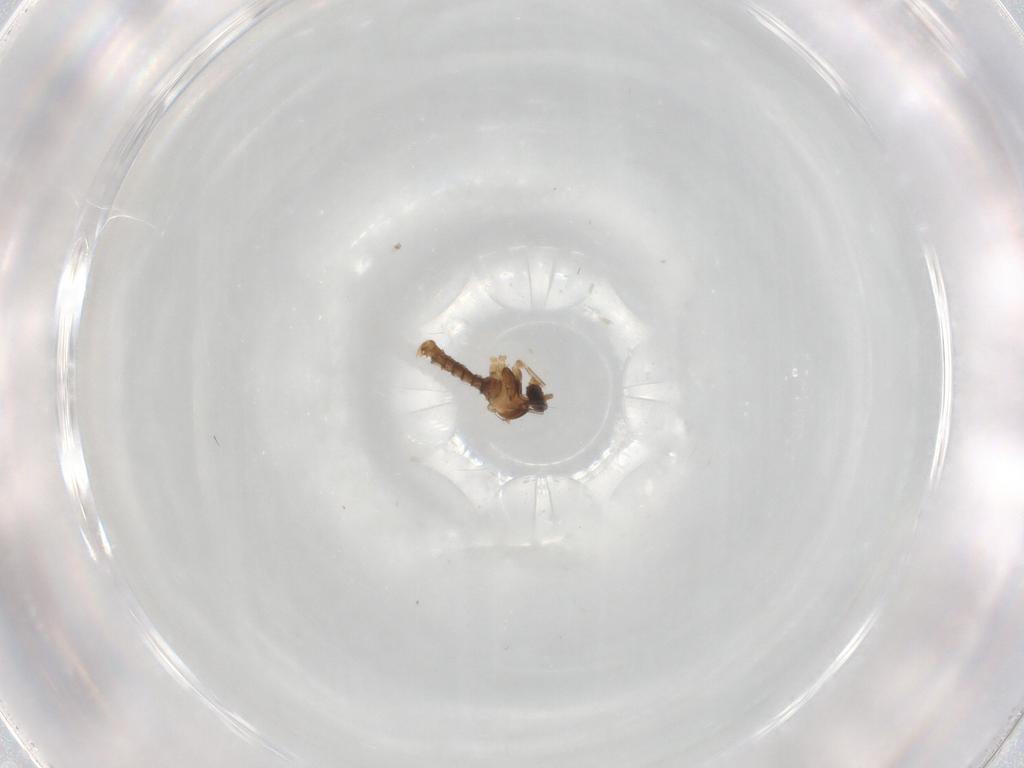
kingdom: Animalia
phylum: Arthropoda
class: Insecta
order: Diptera
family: Cecidomyiidae
